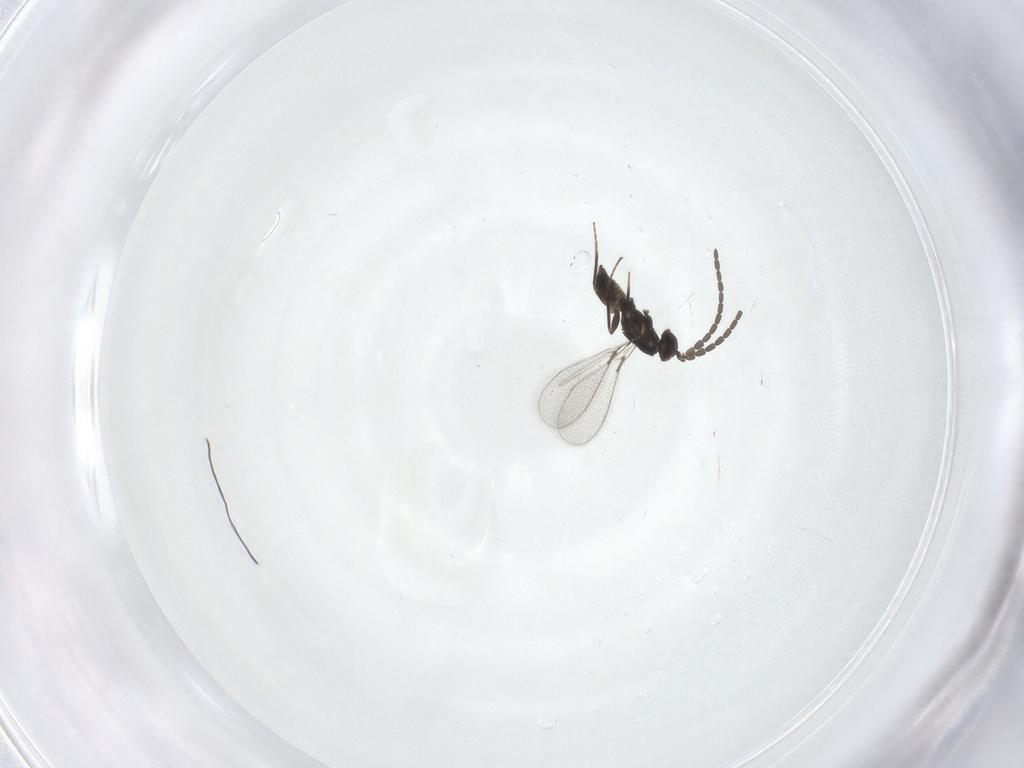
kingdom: Animalia
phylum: Arthropoda
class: Insecta
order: Hymenoptera
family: Mymaridae
